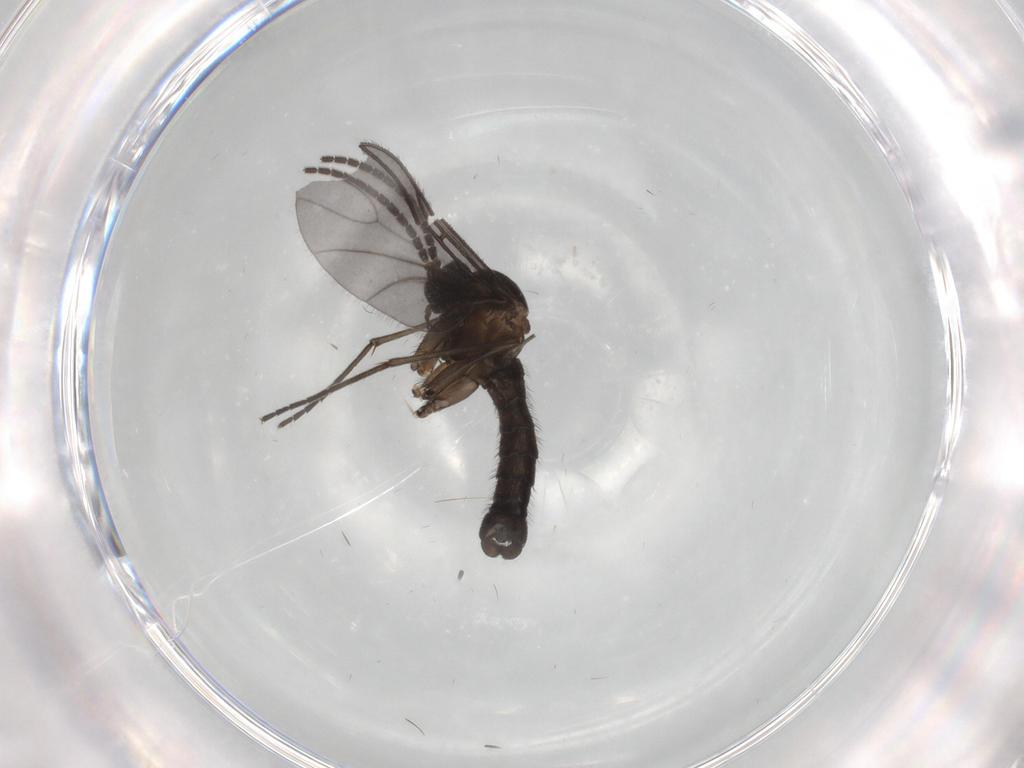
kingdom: Animalia
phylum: Arthropoda
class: Insecta
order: Diptera
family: Sciaridae
